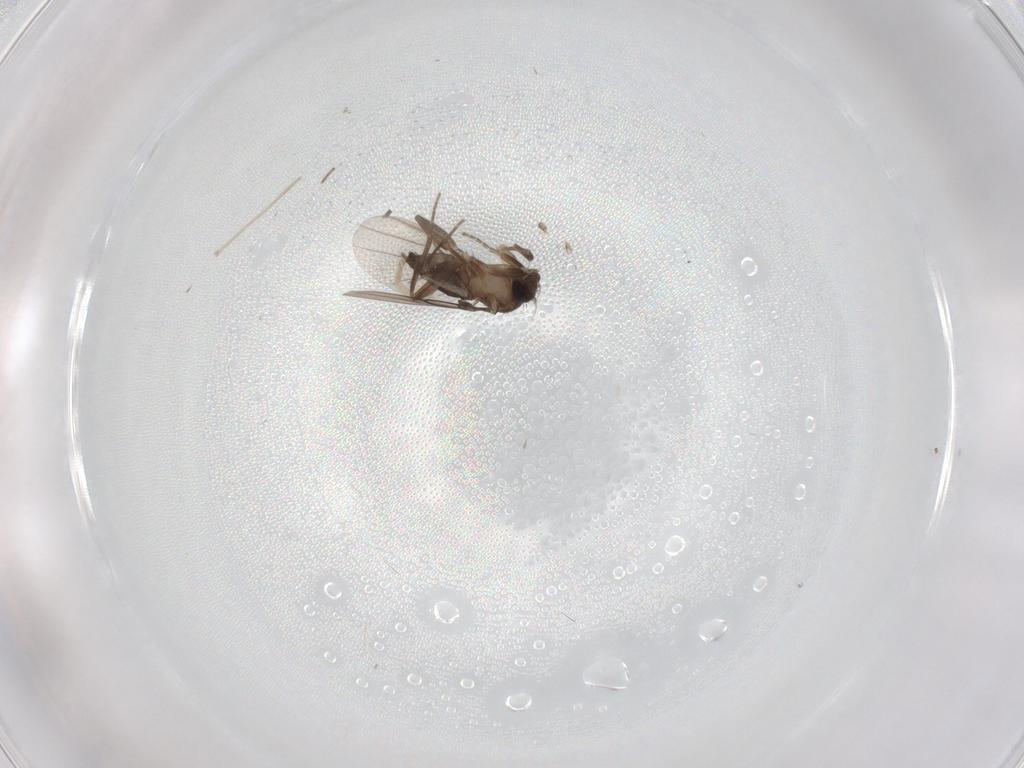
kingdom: Animalia
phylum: Arthropoda
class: Insecta
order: Diptera
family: Phoridae
